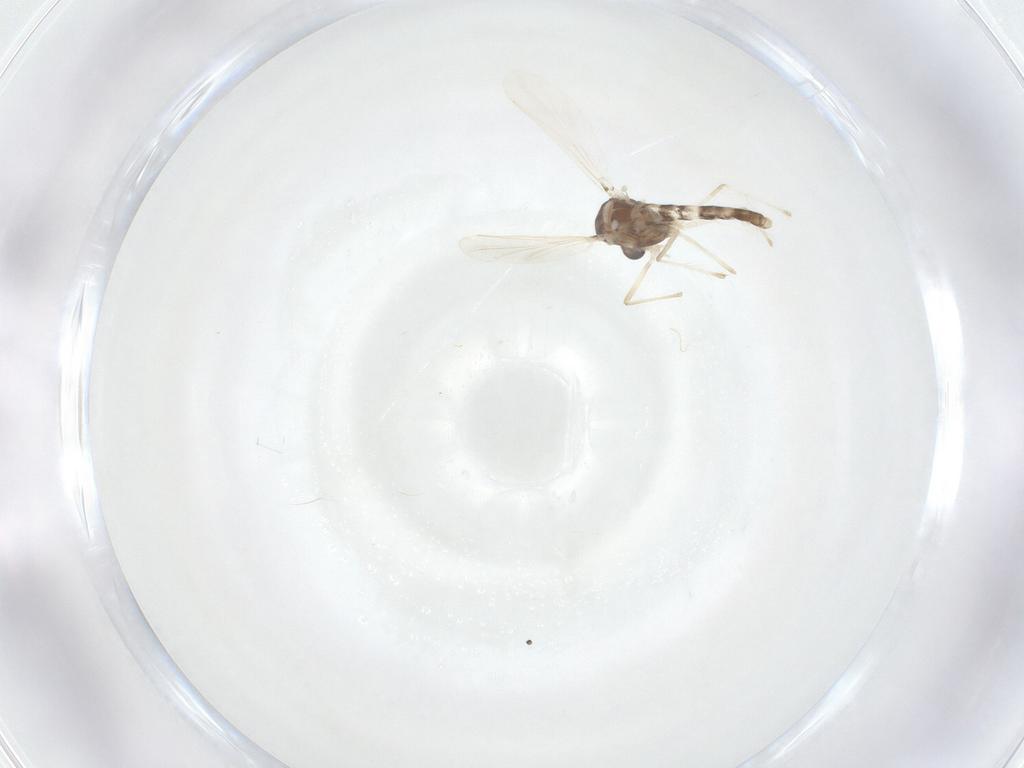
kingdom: Animalia
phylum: Arthropoda
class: Insecta
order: Diptera
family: Chironomidae
